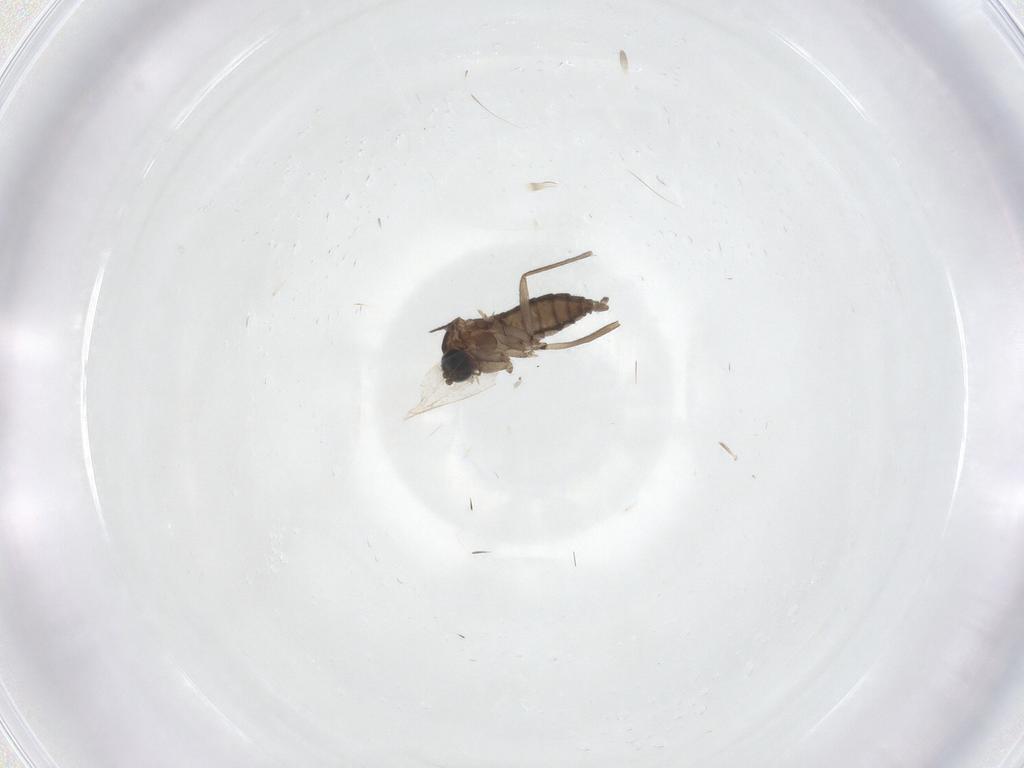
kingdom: Animalia
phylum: Arthropoda
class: Insecta
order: Diptera
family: Sciaridae
